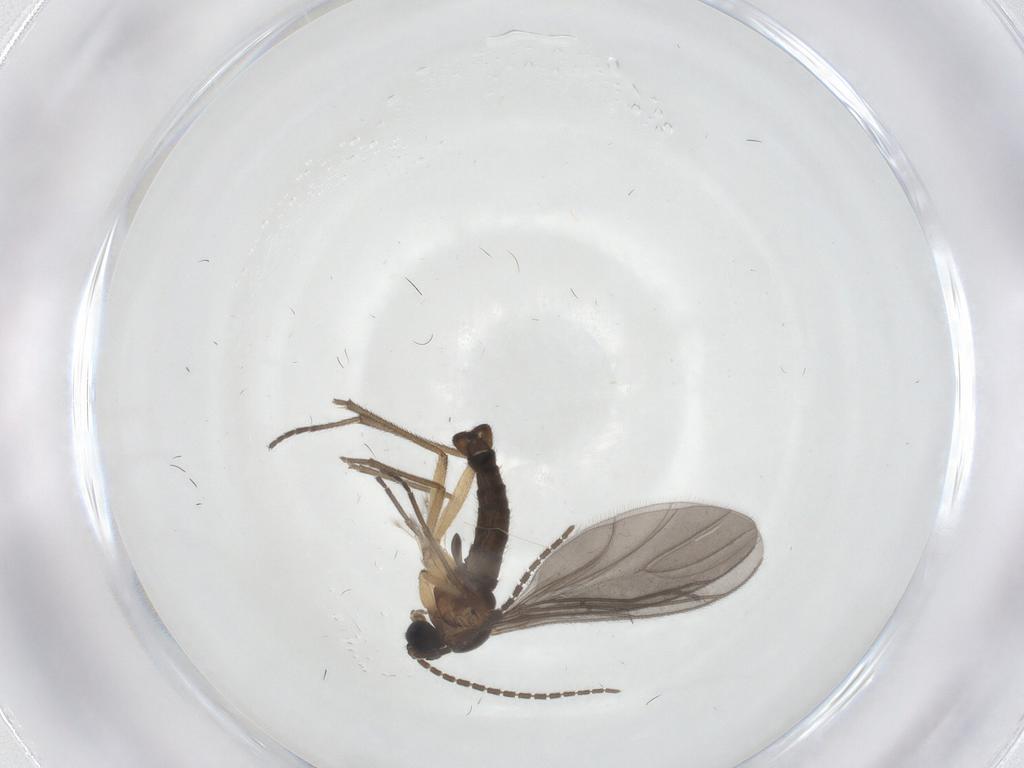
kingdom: Animalia
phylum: Arthropoda
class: Insecta
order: Diptera
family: Sciaridae
